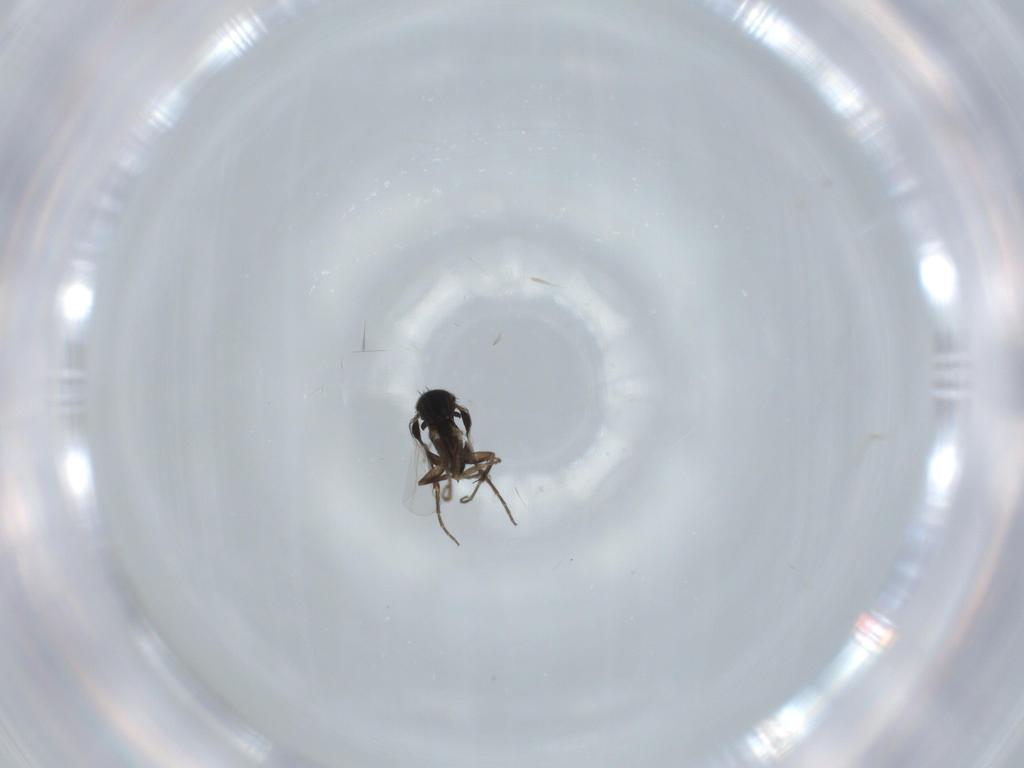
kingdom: Animalia
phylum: Arthropoda
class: Insecta
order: Diptera
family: Phoridae
